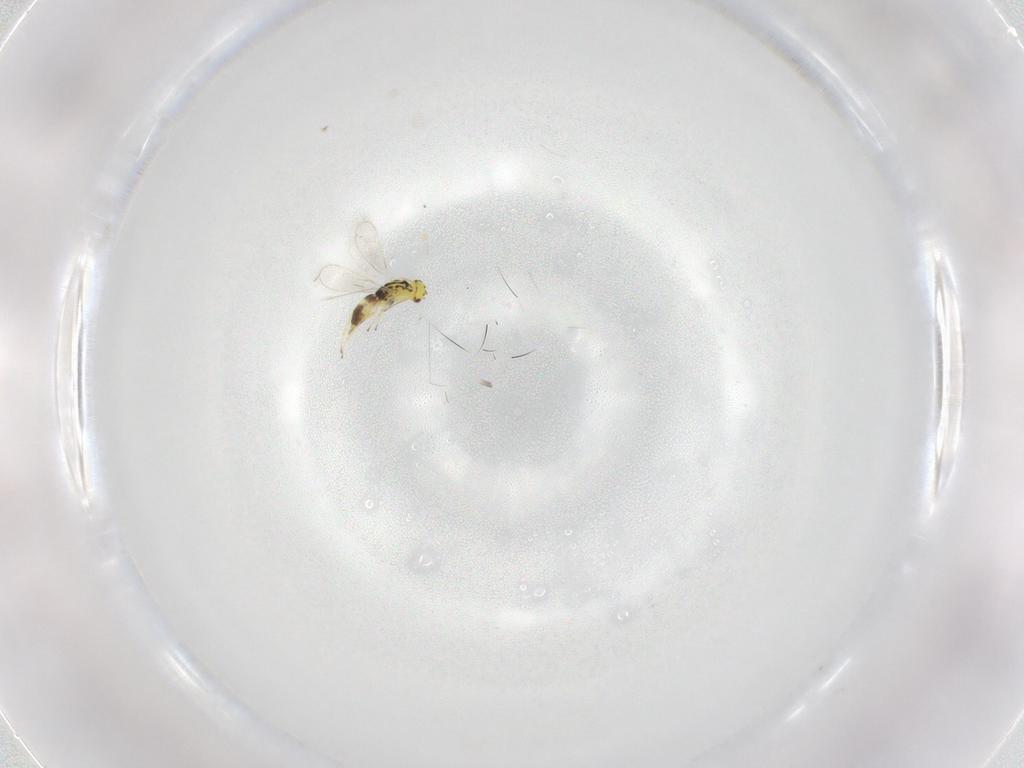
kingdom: Animalia
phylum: Arthropoda
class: Insecta
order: Hymenoptera
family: Eulophidae
